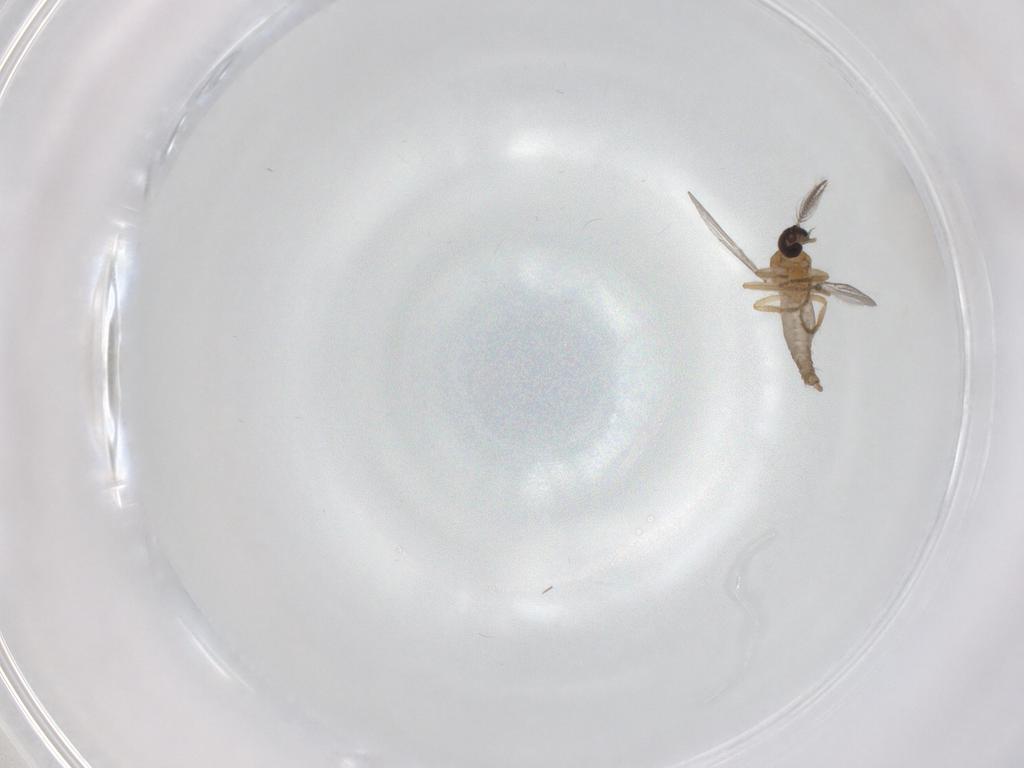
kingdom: Animalia
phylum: Arthropoda
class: Insecta
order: Diptera
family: Ceratopogonidae
